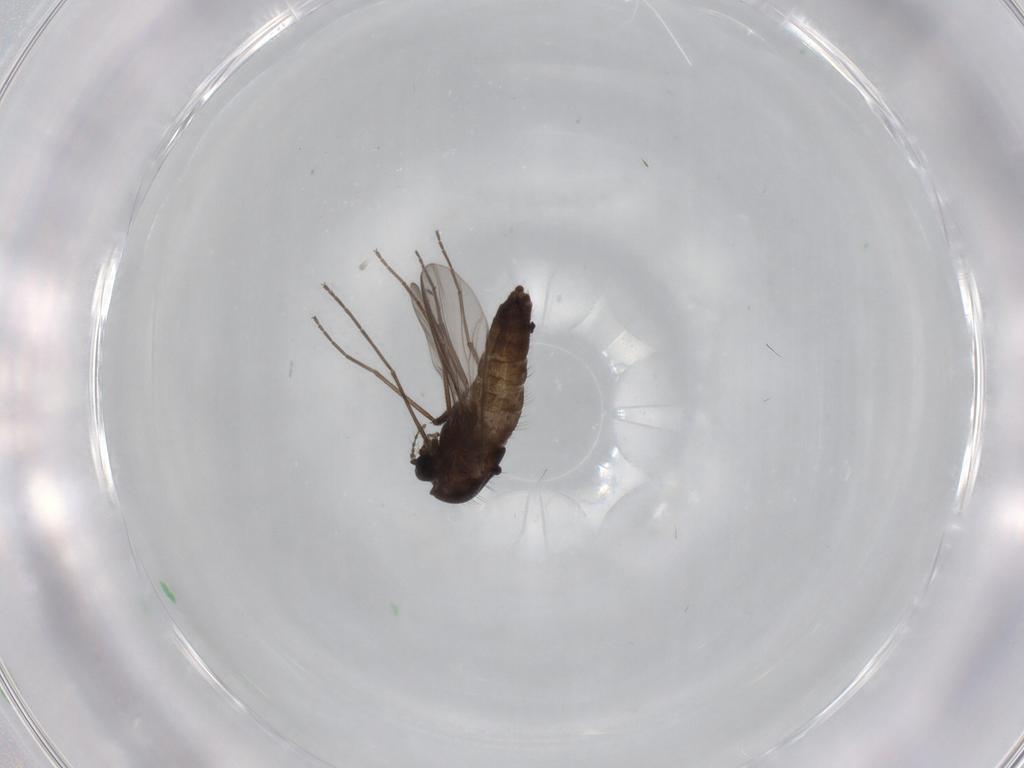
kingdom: Animalia
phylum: Arthropoda
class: Insecta
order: Diptera
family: Chironomidae
